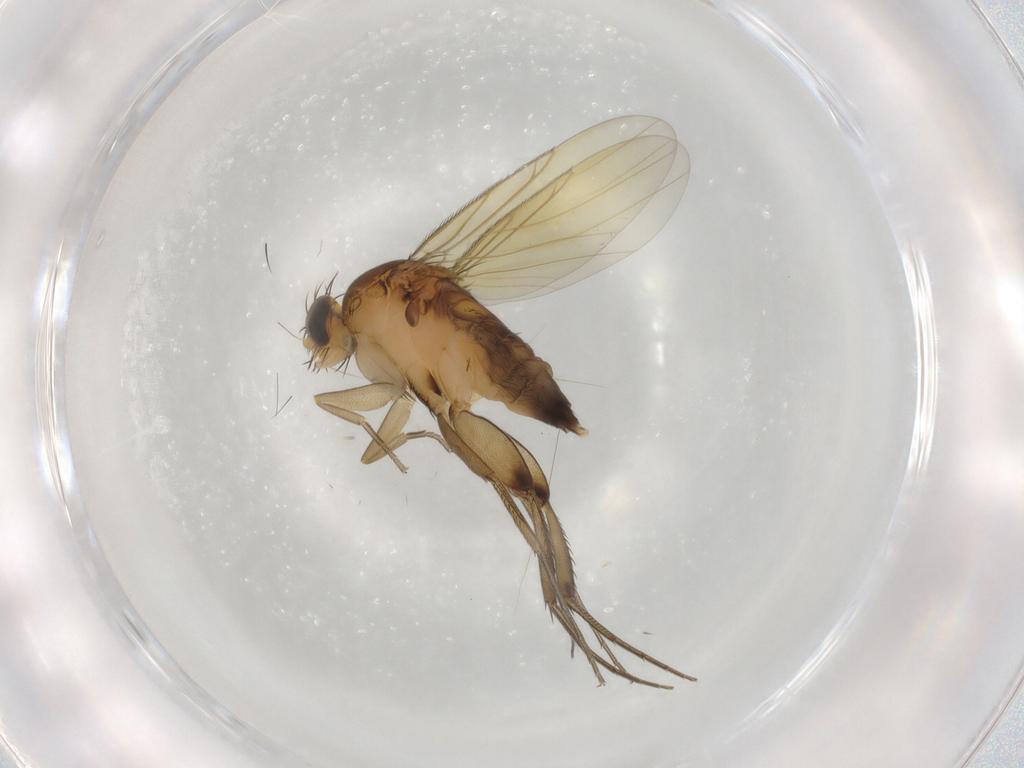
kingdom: Animalia
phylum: Arthropoda
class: Insecta
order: Diptera
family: Phoridae
